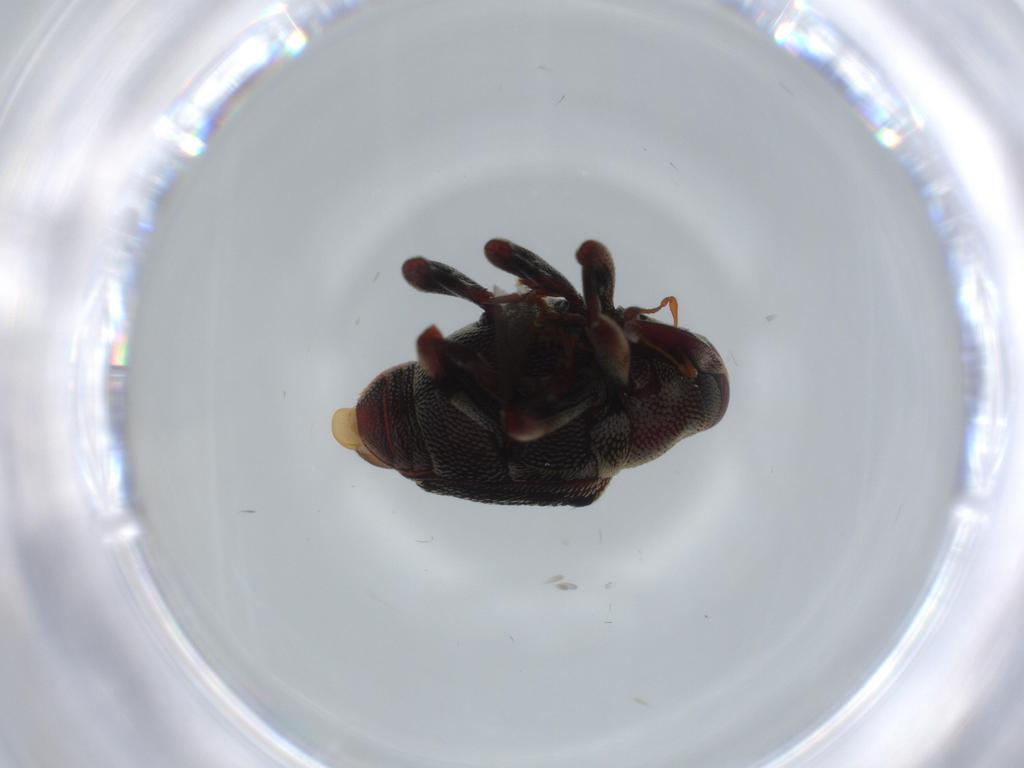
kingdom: Animalia
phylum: Arthropoda
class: Insecta
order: Coleoptera
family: Curculionidae
